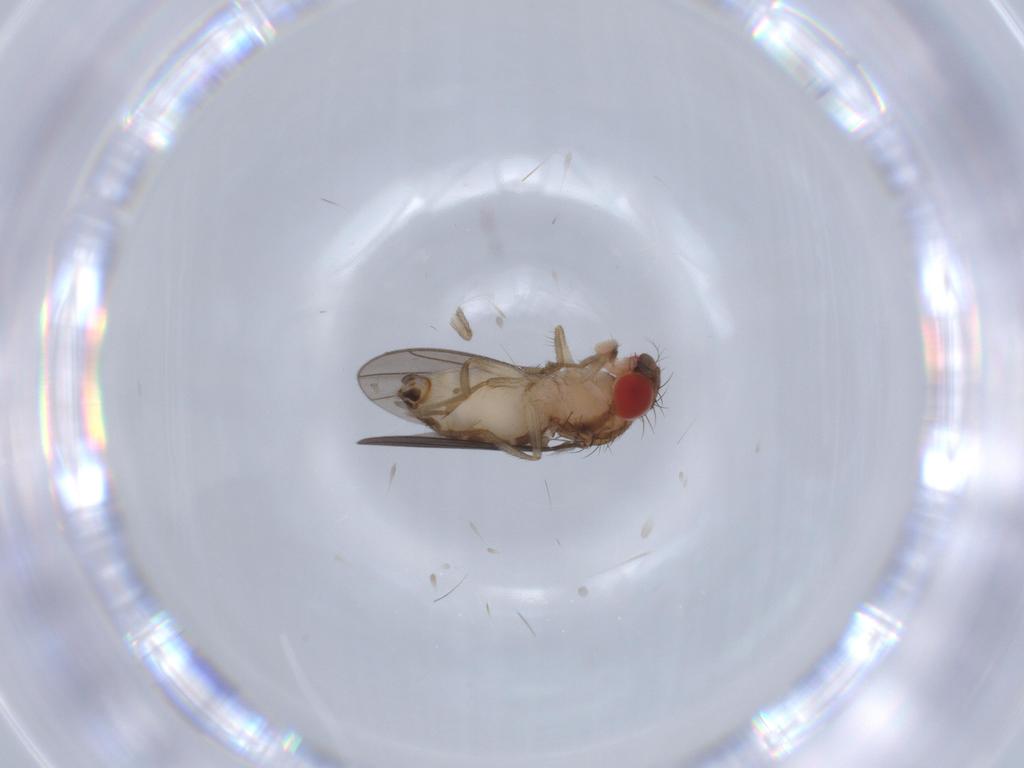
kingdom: Animalia
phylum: Arthropoda
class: Insecta
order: Diptera
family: Drosophilidae
